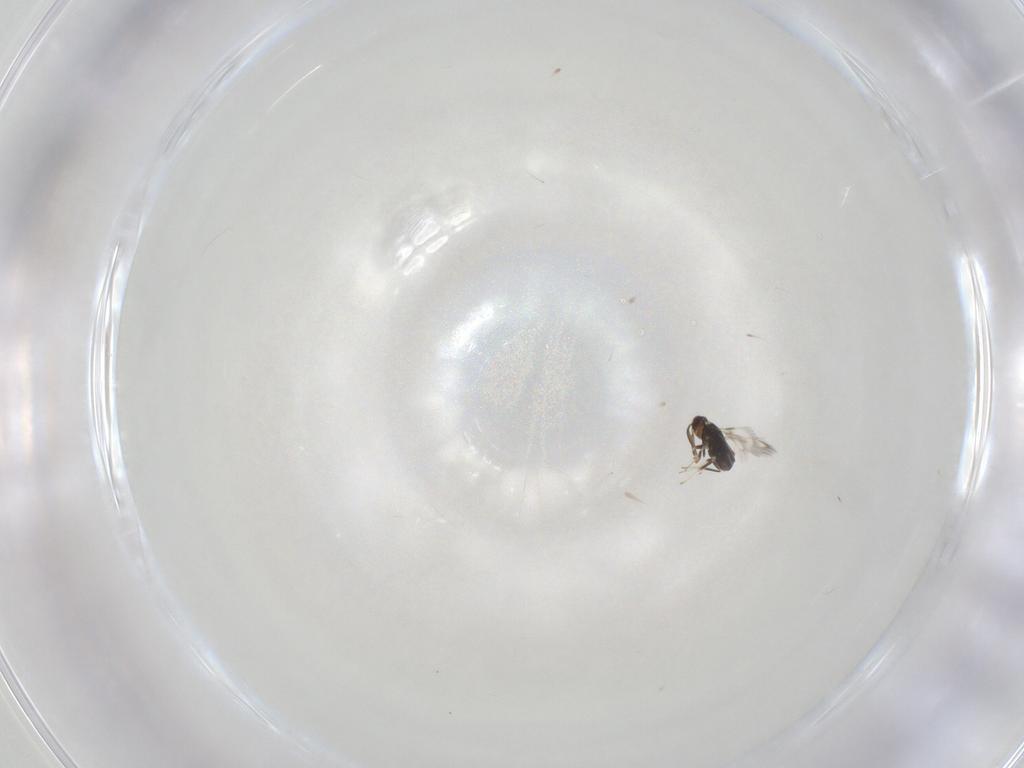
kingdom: Animalia
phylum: Arthropoda
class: Insecta
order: Hymenoptera
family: Signiphoridae
